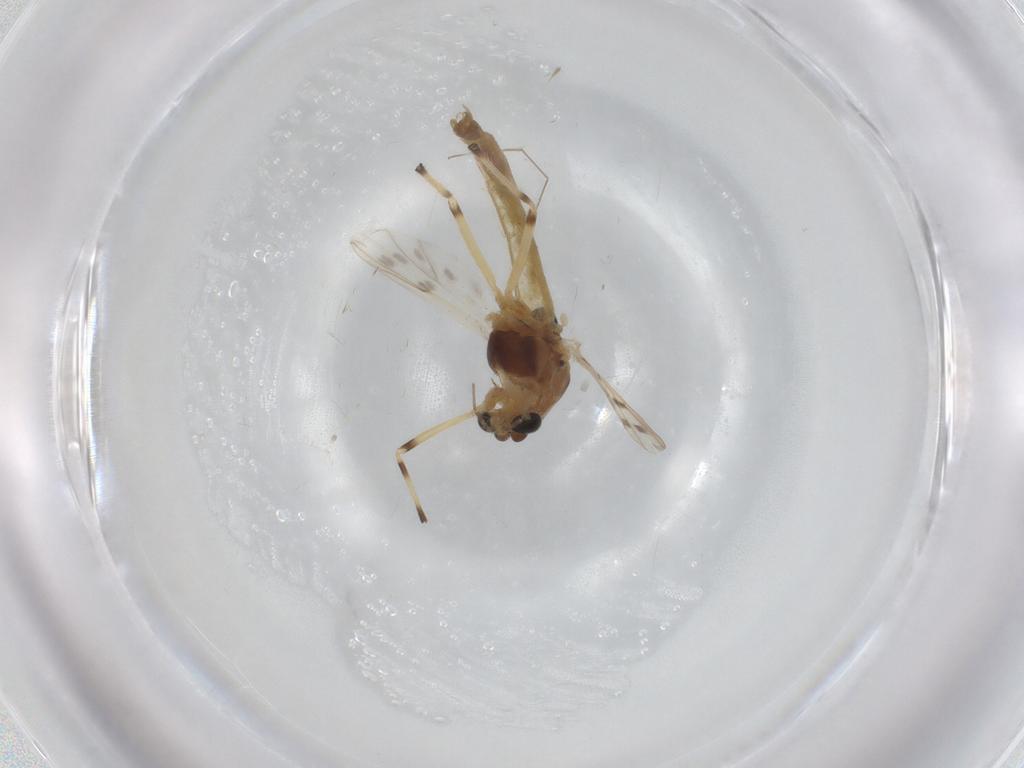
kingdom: Animalia
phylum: Arthropoda
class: Insecta
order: Diptera
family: Chironomidae
